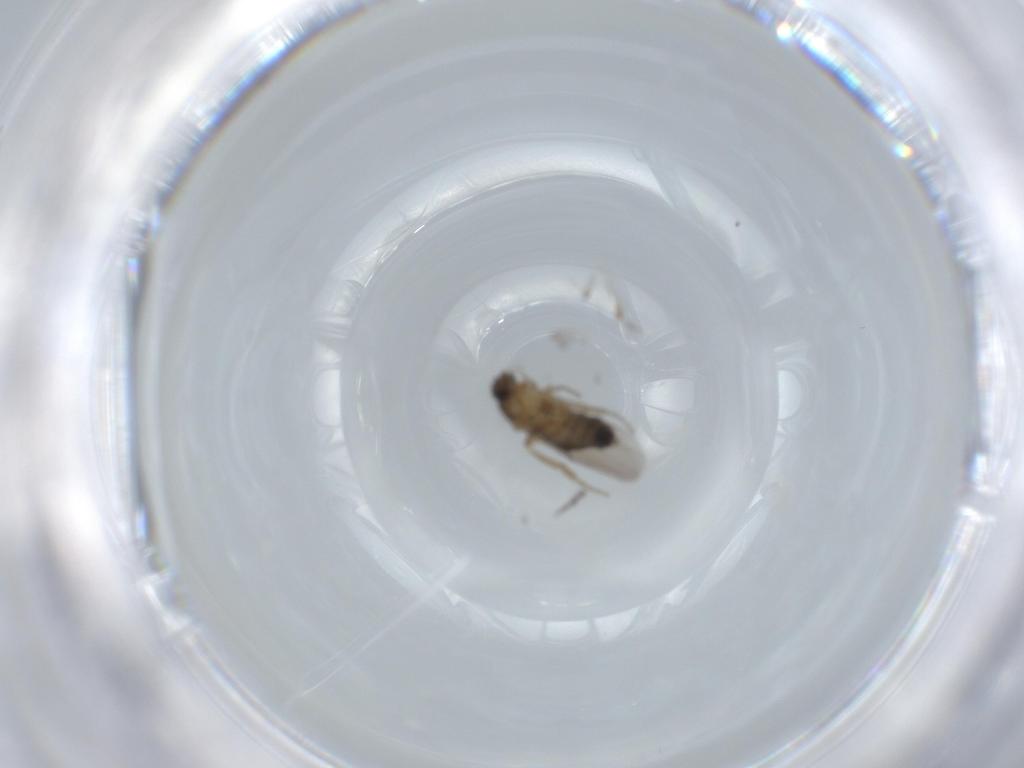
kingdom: Animalia
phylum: Arthropoda
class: Insecta
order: Diptera
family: Phoridae
